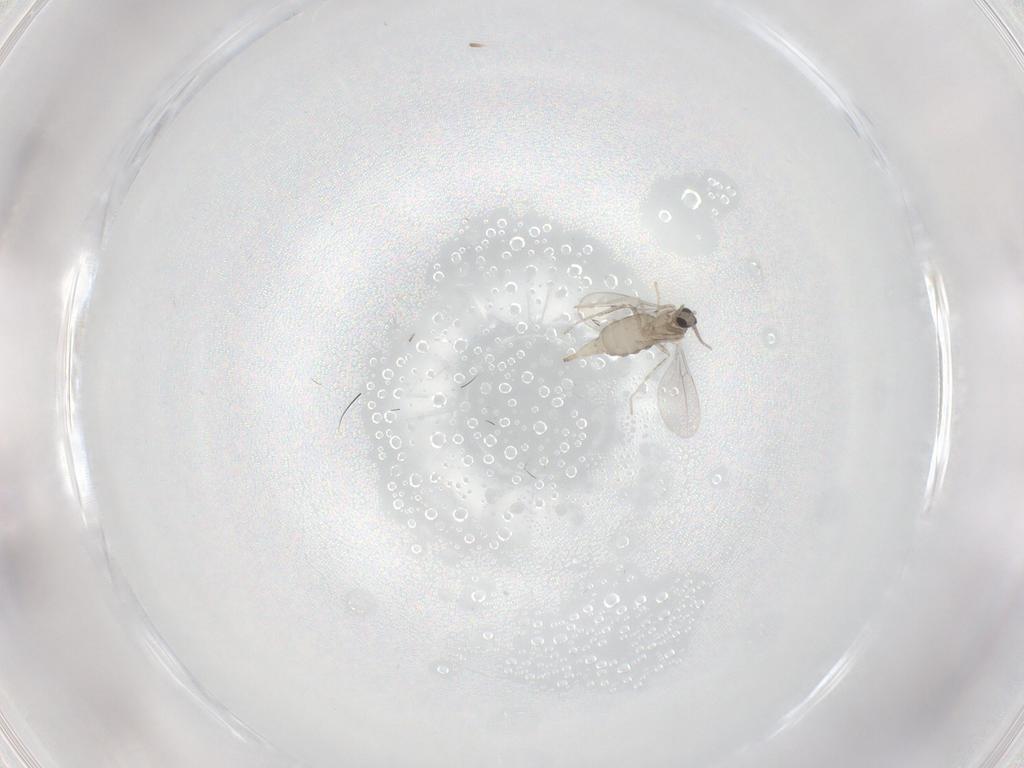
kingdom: Animalia
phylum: Arthropoda
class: Insecta
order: Diptera
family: Cecidomyiidae
